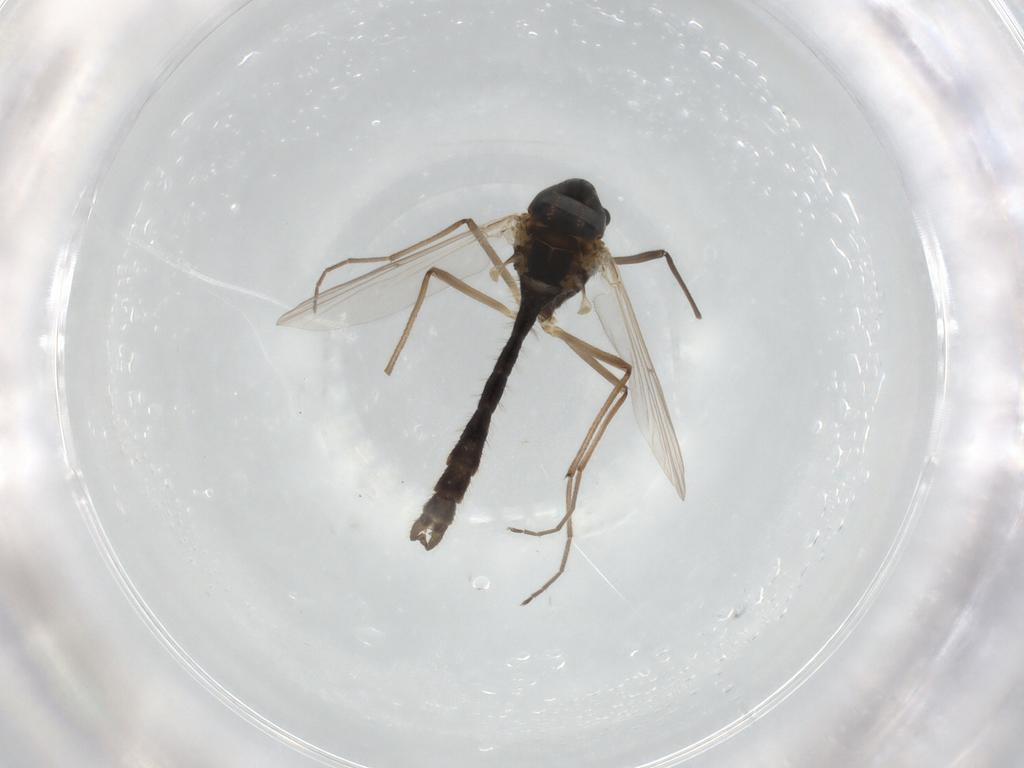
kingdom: Animalia
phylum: Arthropoda
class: Insecta
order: Diptera
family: Chironomidae
